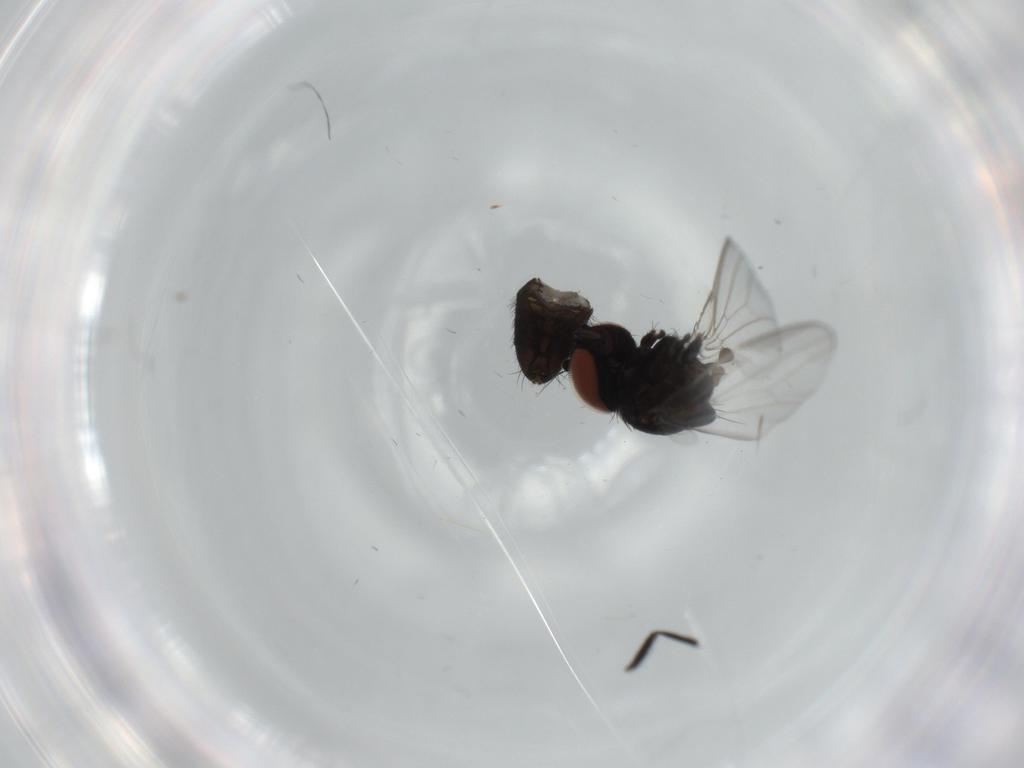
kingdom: Animalia
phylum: Arthropoda
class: Insecta
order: Diptera
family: Milichiidae
